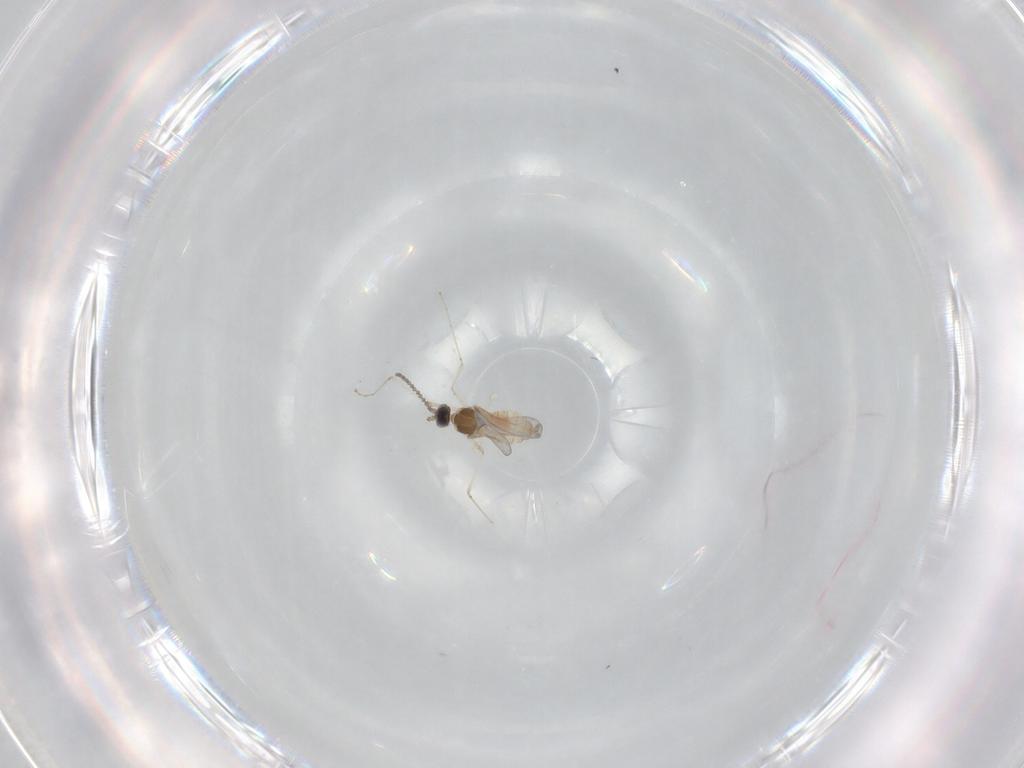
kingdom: Animalia
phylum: Arthropoda
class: Insecta
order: Diptera
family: Cecidomyiidae
